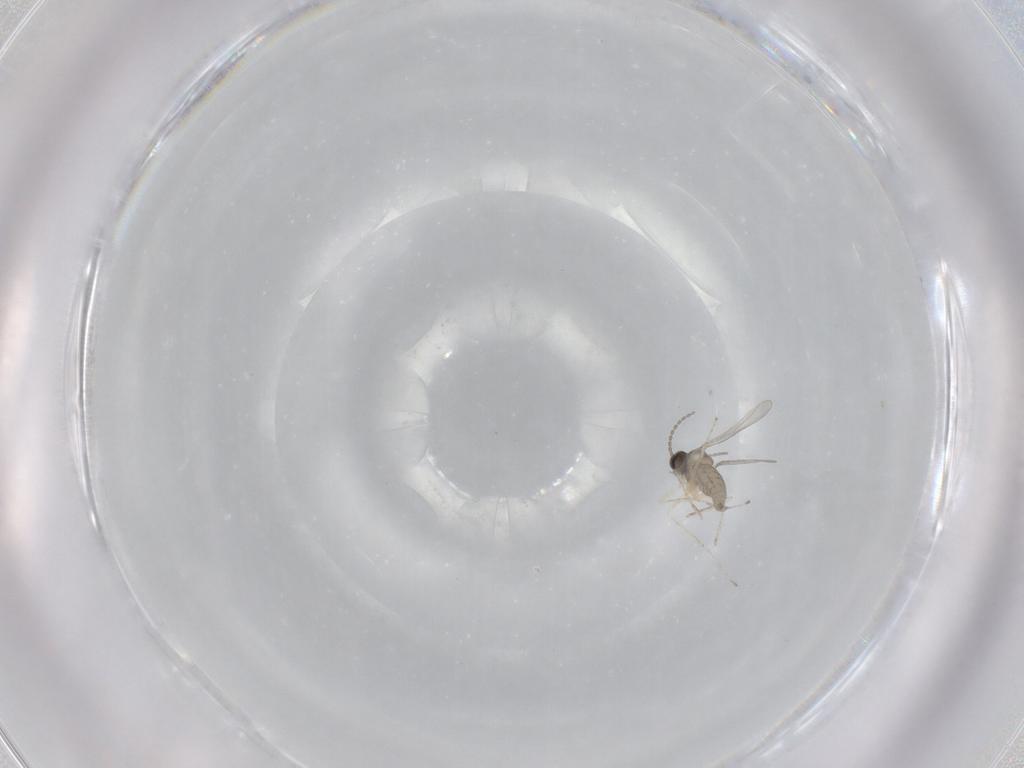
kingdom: Animalia
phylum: Arthropoda
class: Insecta
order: Diptera
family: Cecidomyiidae
